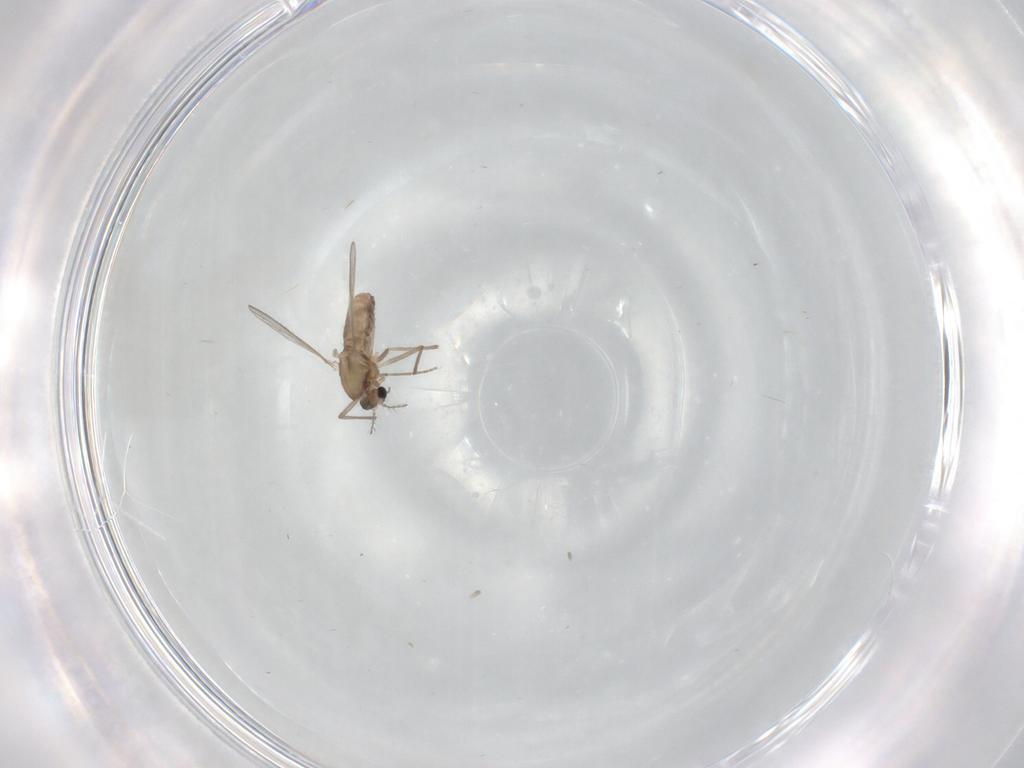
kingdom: Animalia
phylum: Arthropoda
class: Insecta
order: Diptera
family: Chironomidae
